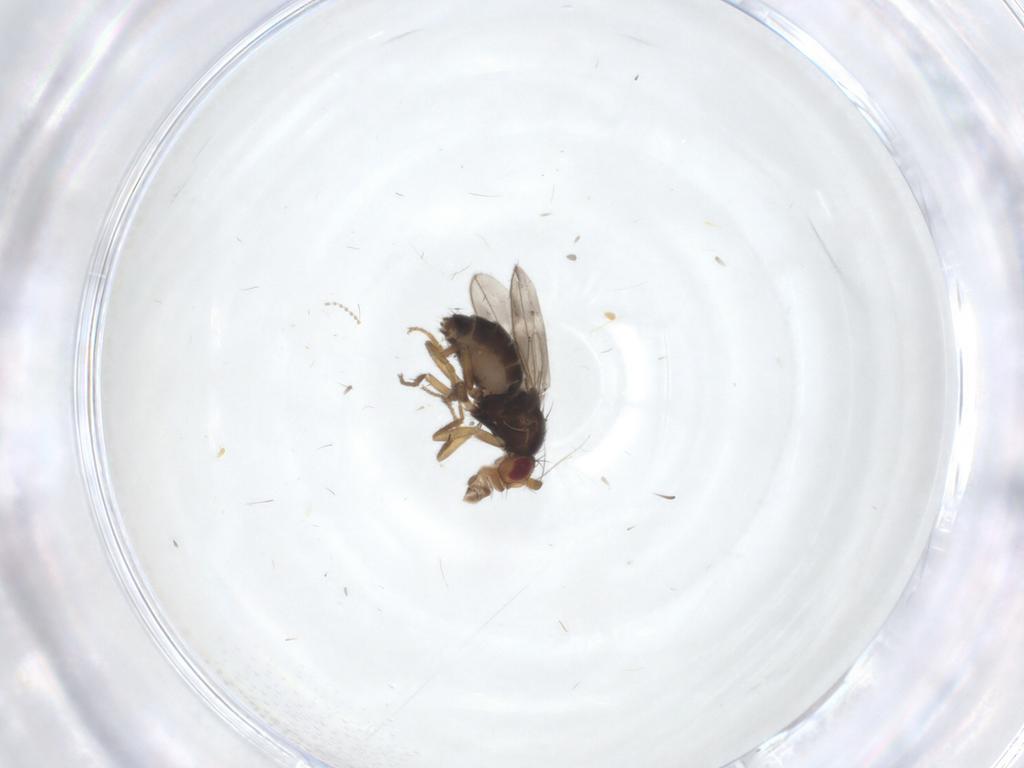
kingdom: Animalia
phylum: Arthropoda
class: Insecta
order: Diptera
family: Sphaeroceridae
